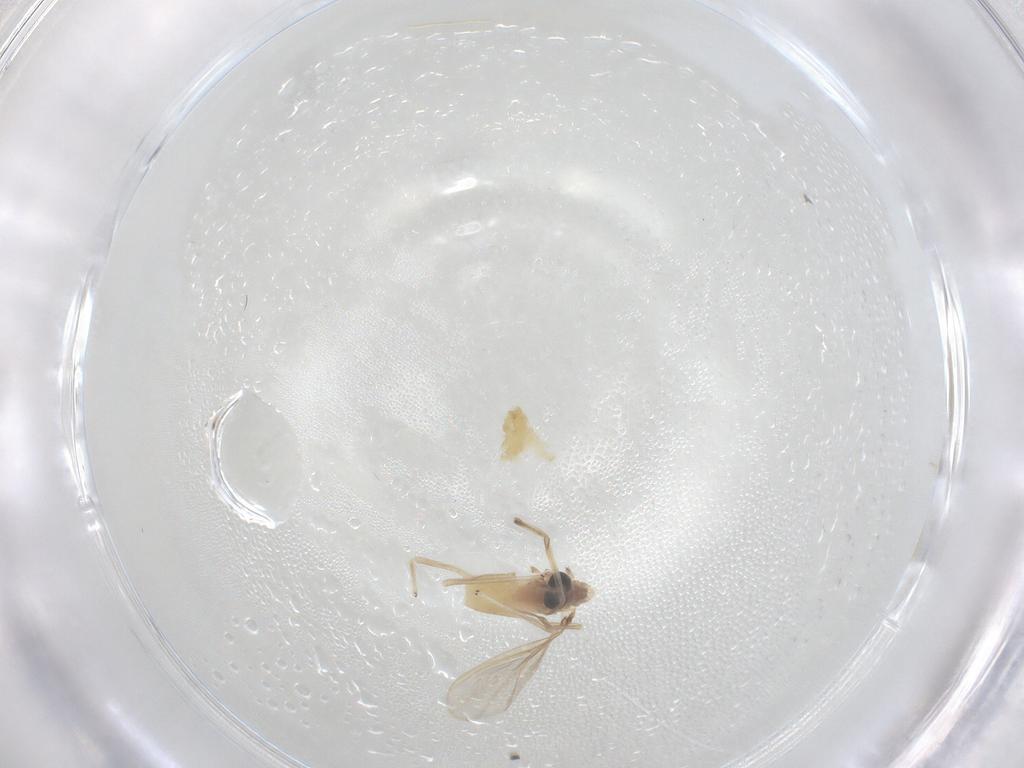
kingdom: Animalia
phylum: Arthropoda
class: Insecta
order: Diptera
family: Chironomidae
